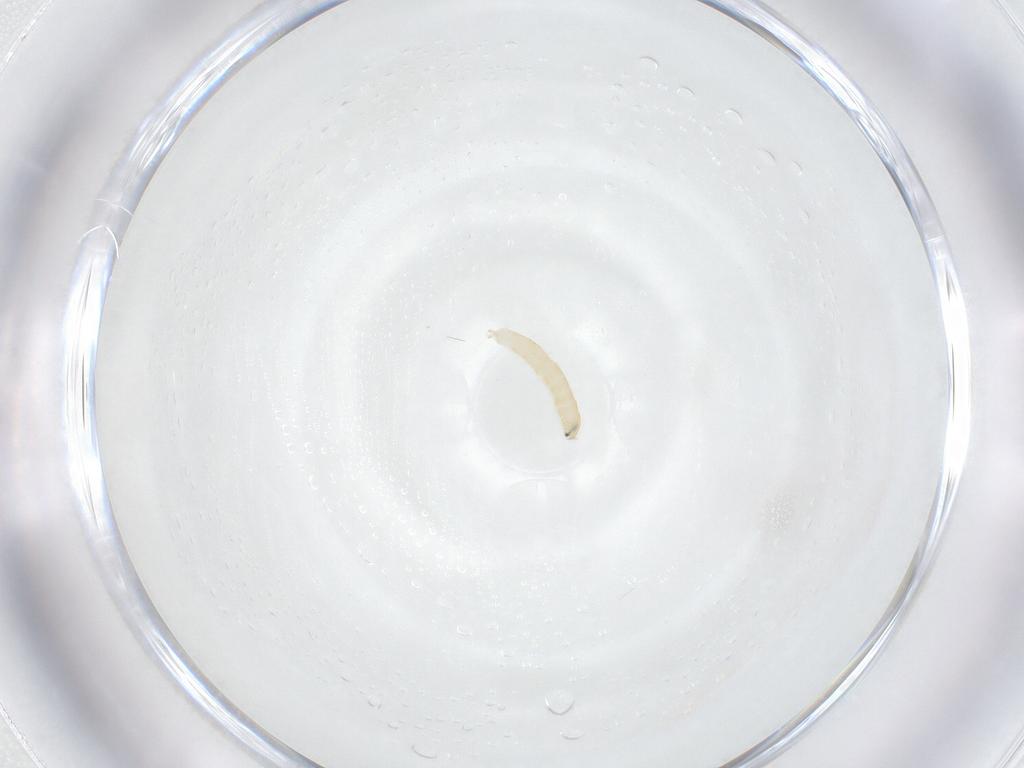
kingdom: Animalia
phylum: Arthropoda
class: Insecta
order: Diptera
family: Tachinidae
